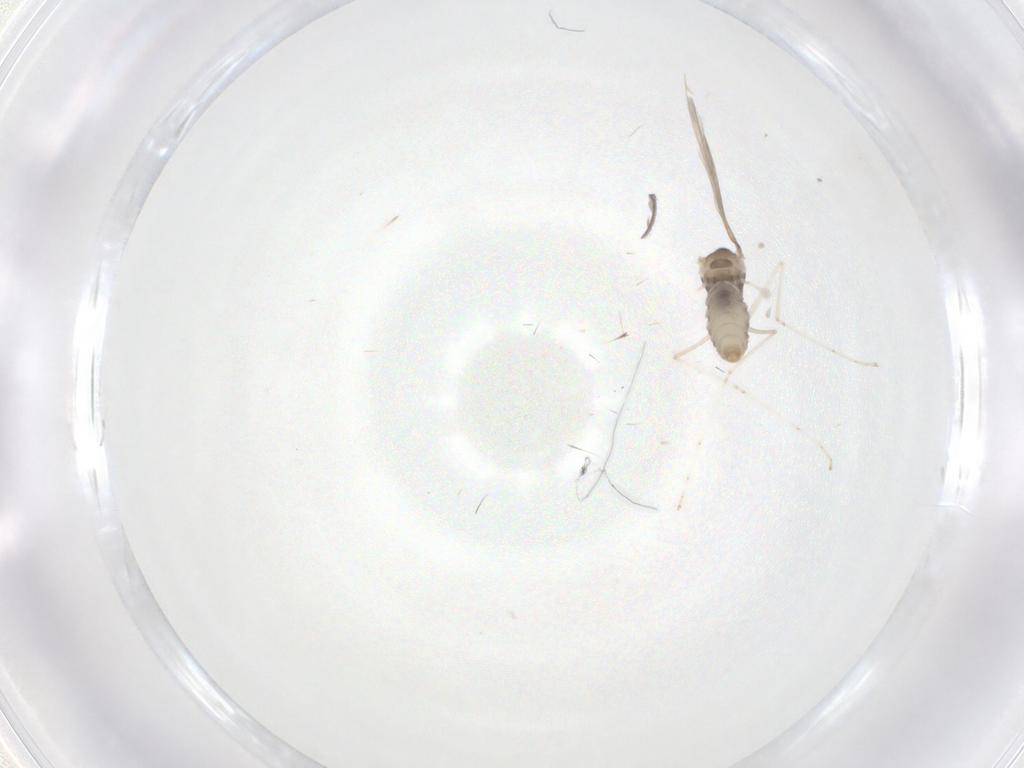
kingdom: Animalia
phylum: Arthropoda
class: Insecta
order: Diptera
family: Cecidomyiidae
